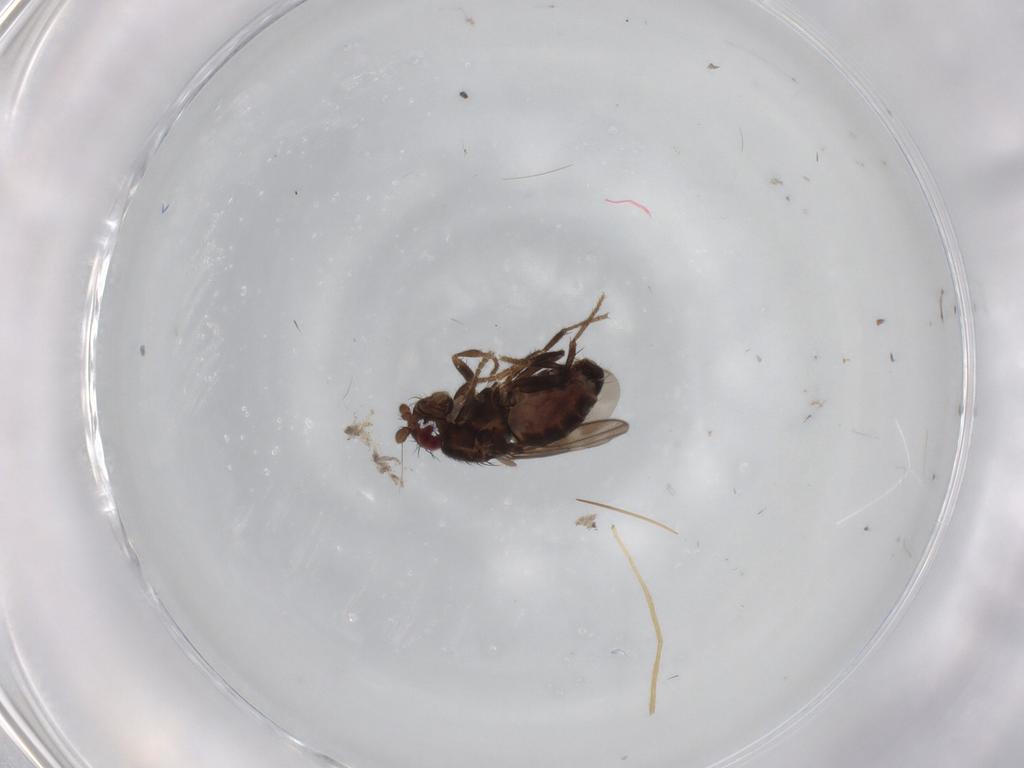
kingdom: Animalia
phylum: Arthropoda
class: Insecta
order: Diptera
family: Sphaeroceridae
